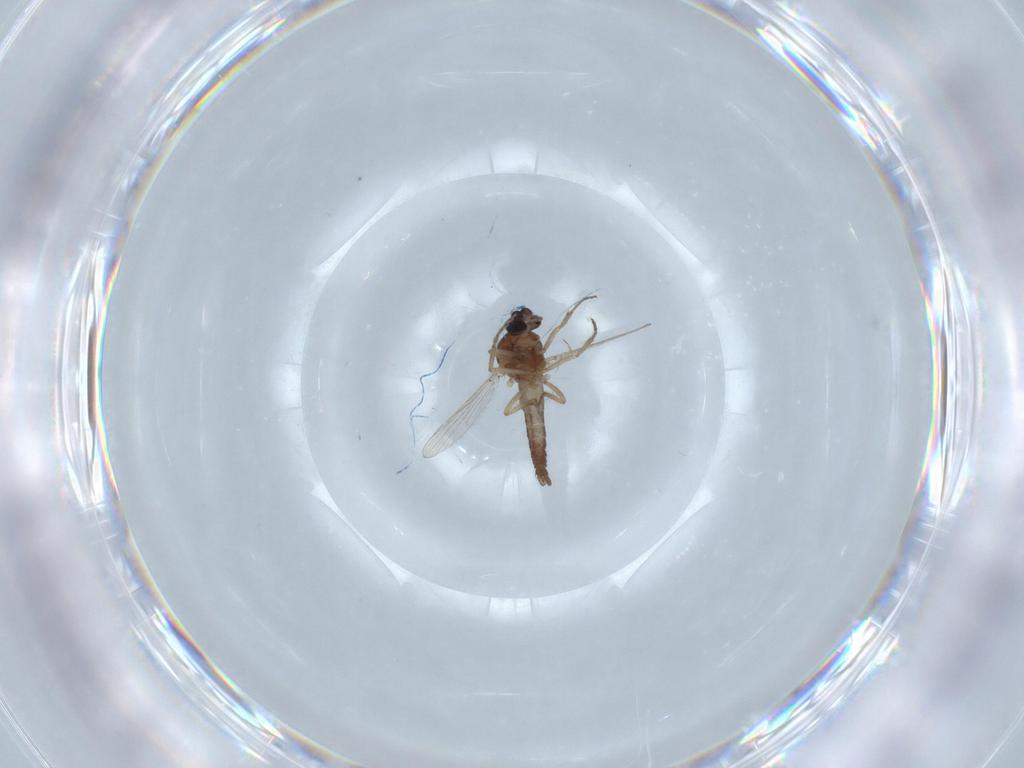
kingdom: Animalia
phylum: Arthropoda
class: Insecta
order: Diptera
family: Muscidae
